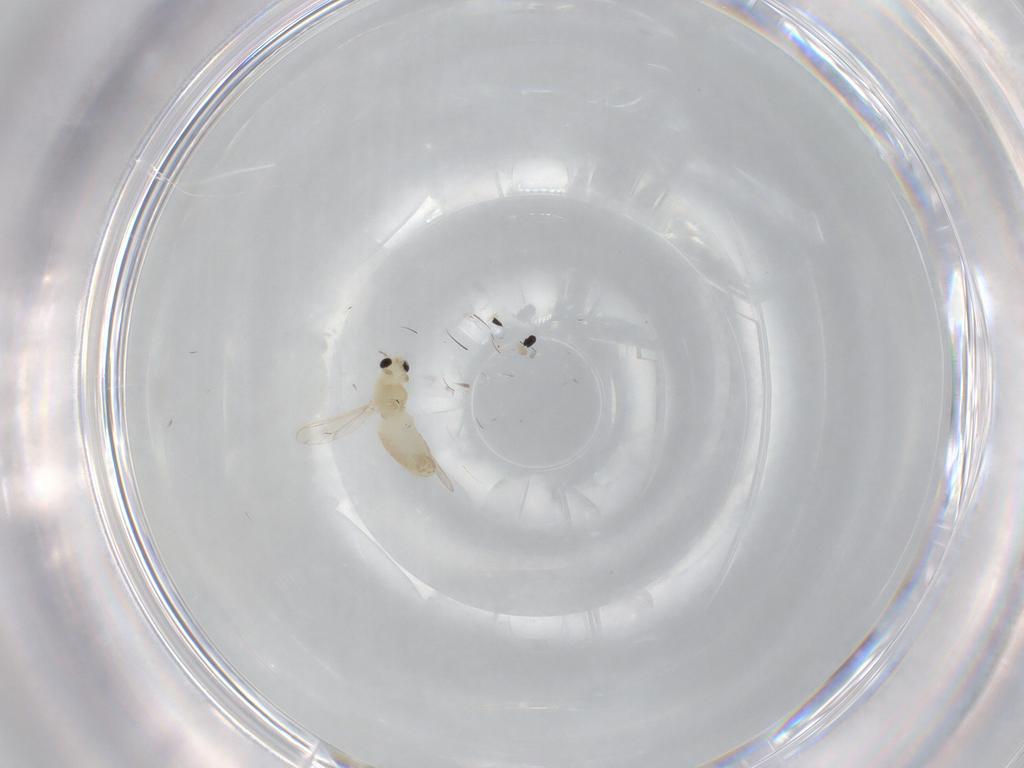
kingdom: Animalia
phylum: Arthropoda
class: Insecta
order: Diptera
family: Chironomidae
